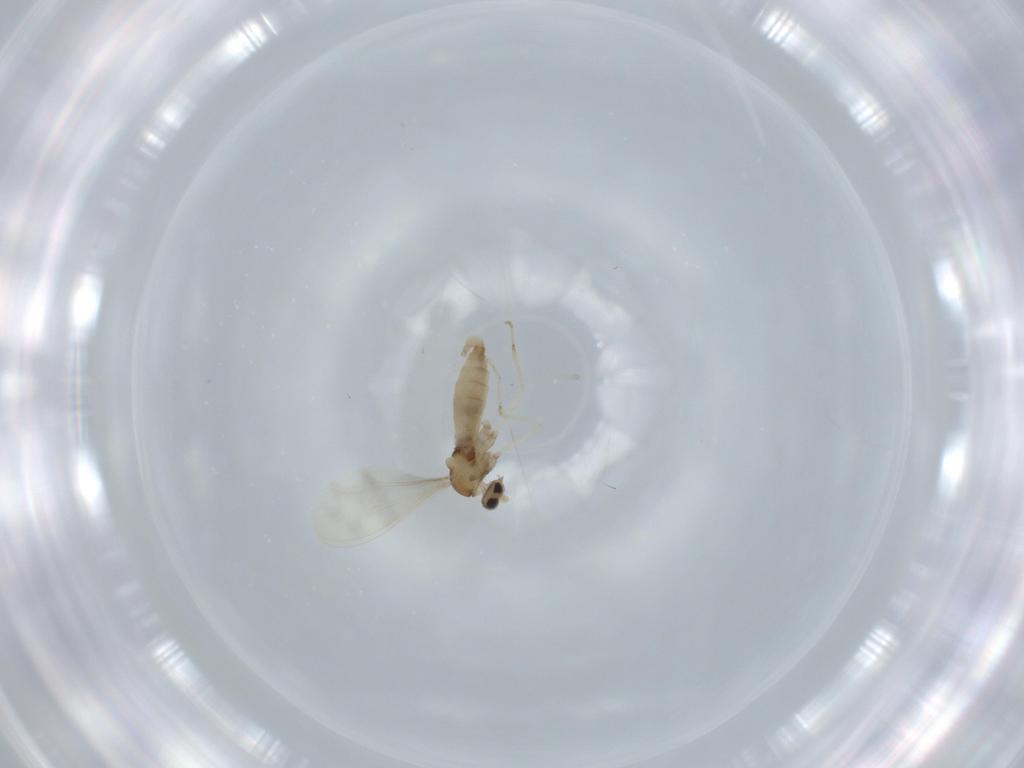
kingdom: Animalia
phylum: Arthropoda
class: Insecta
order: Diptera
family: Cecidomyiidae
